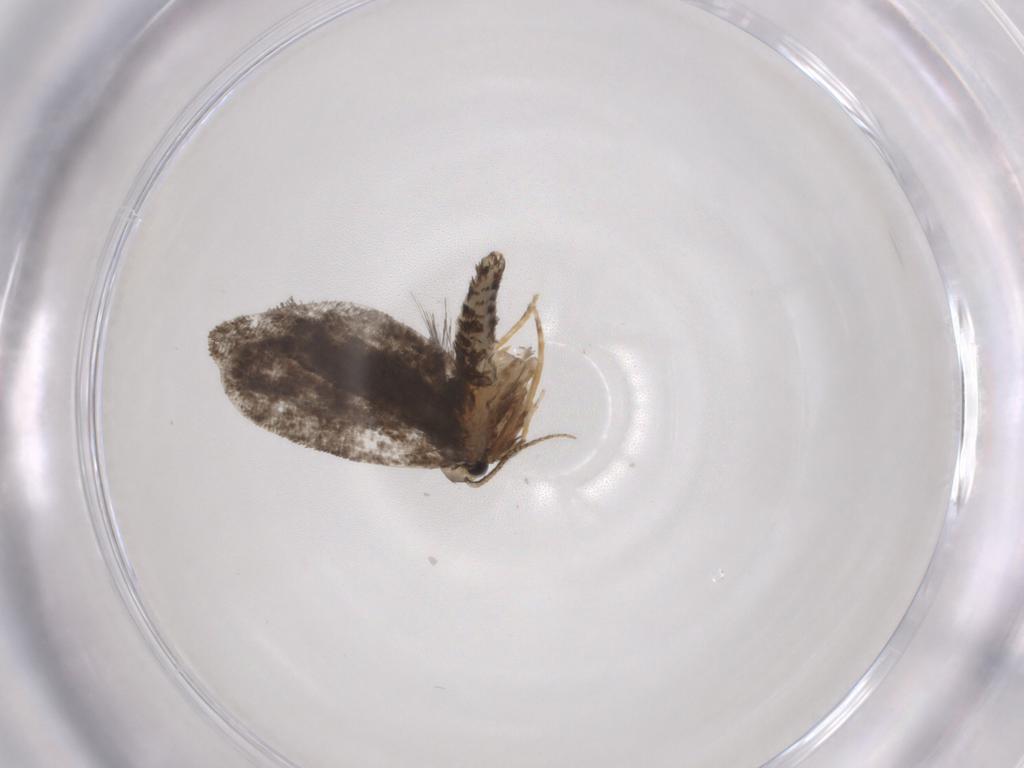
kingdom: Animalia
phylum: Arthropoda
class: Insecta
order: Lepidoptera
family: Psychidae
